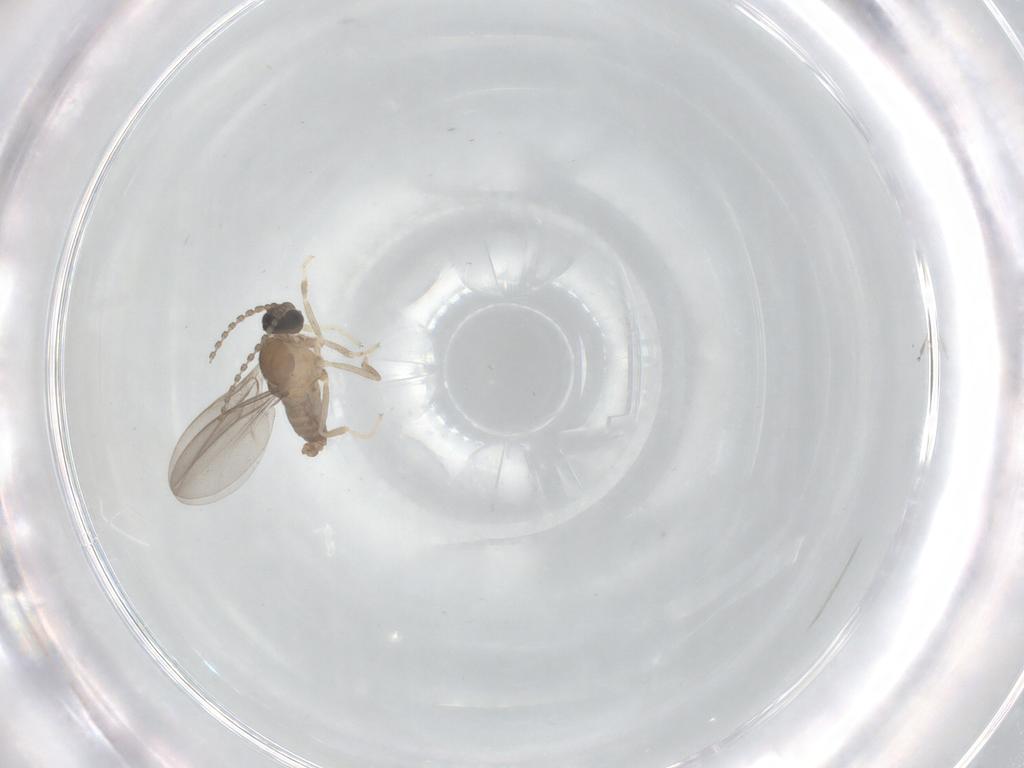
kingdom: Animalia
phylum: Arthropoda
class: Insecta
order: Diptera
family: Cecidomyiidae
